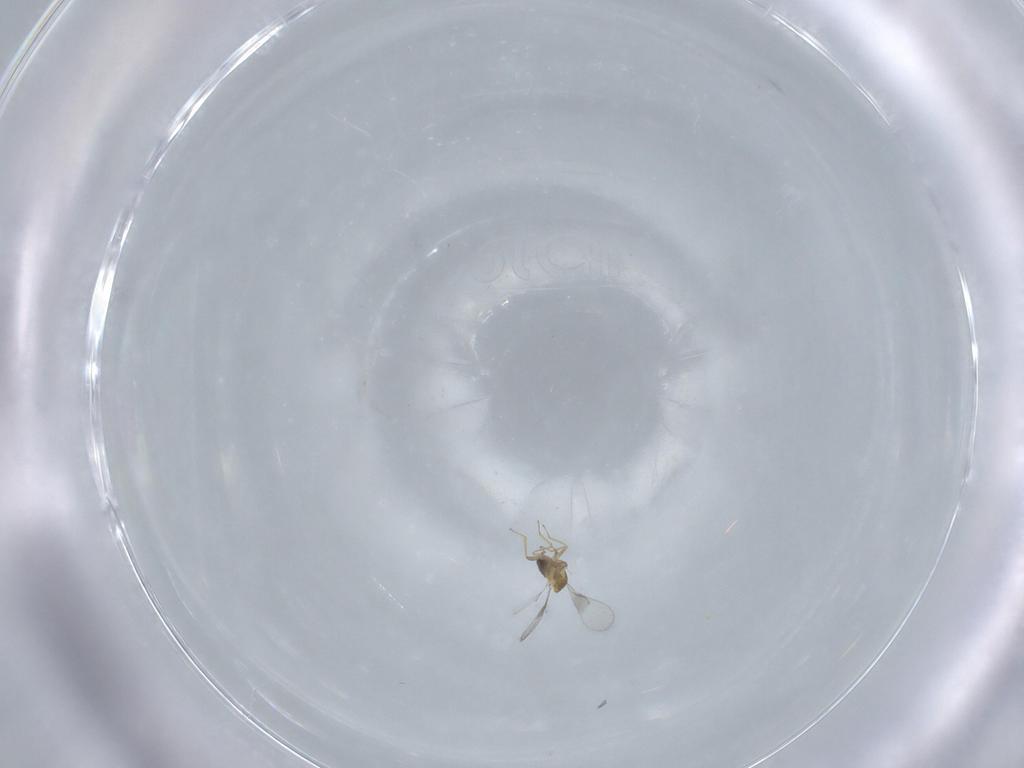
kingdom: Animalia
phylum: Arthropoda
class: Insecta
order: Hymenoptera
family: Trichogrammatidae
